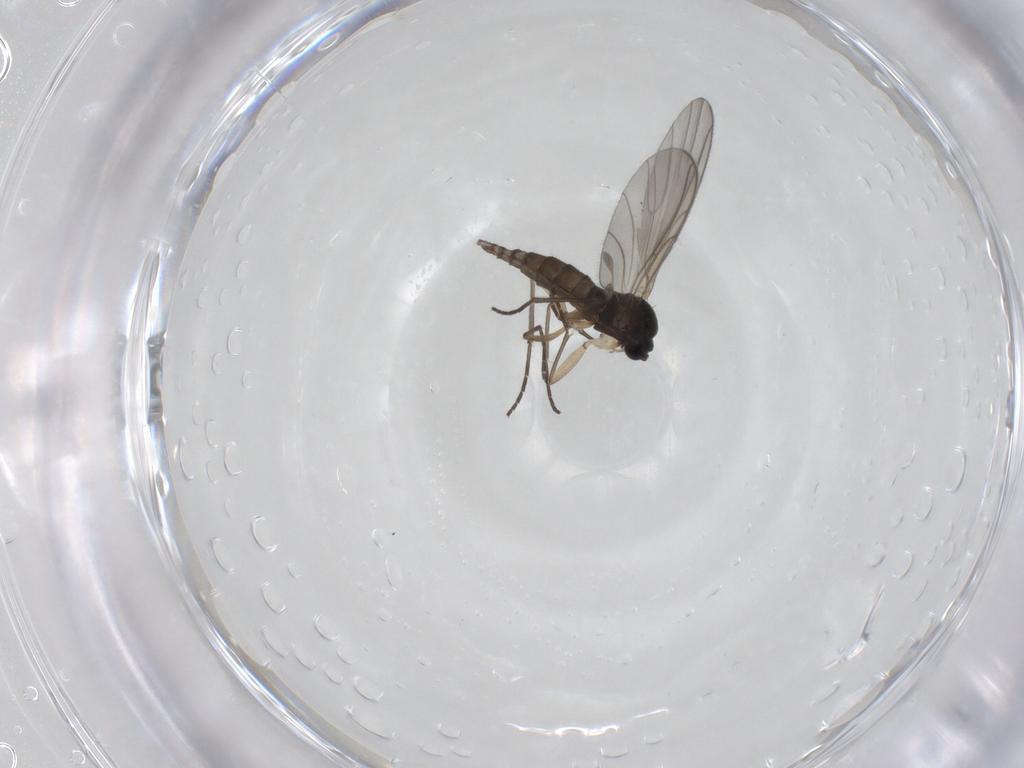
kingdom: Animalia
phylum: Arthropoda
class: Insecta
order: Diptera
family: Sciaridae
